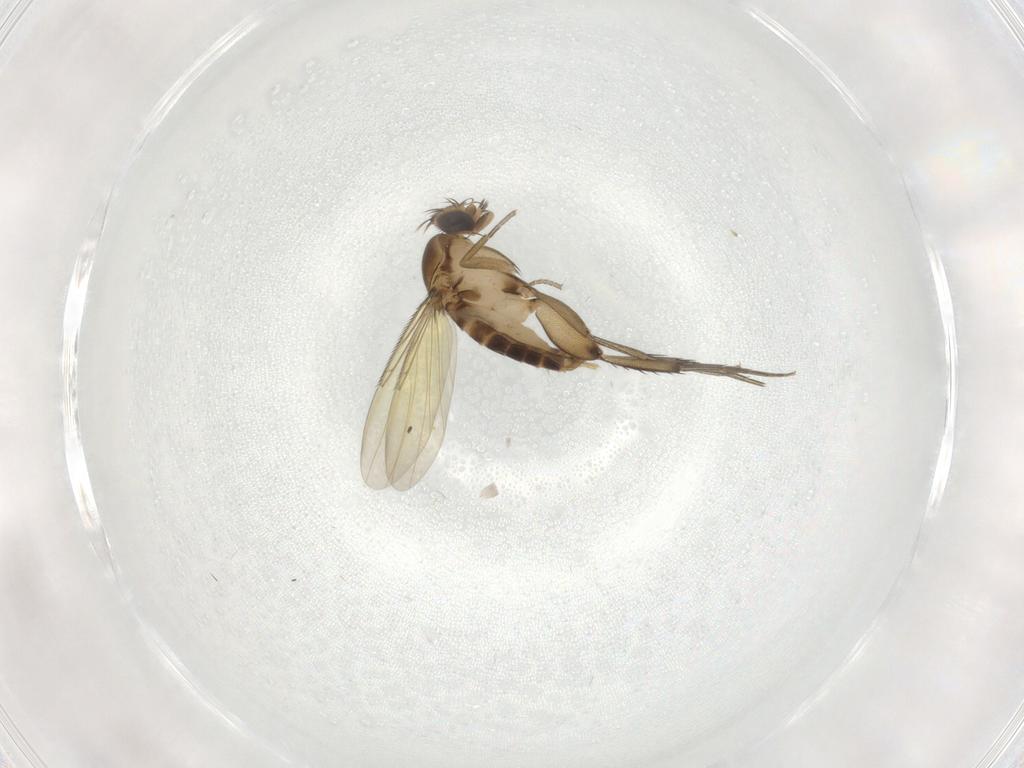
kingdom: Animalia
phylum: Arthropoda
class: Insecta
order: Diptera
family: Phoridae
